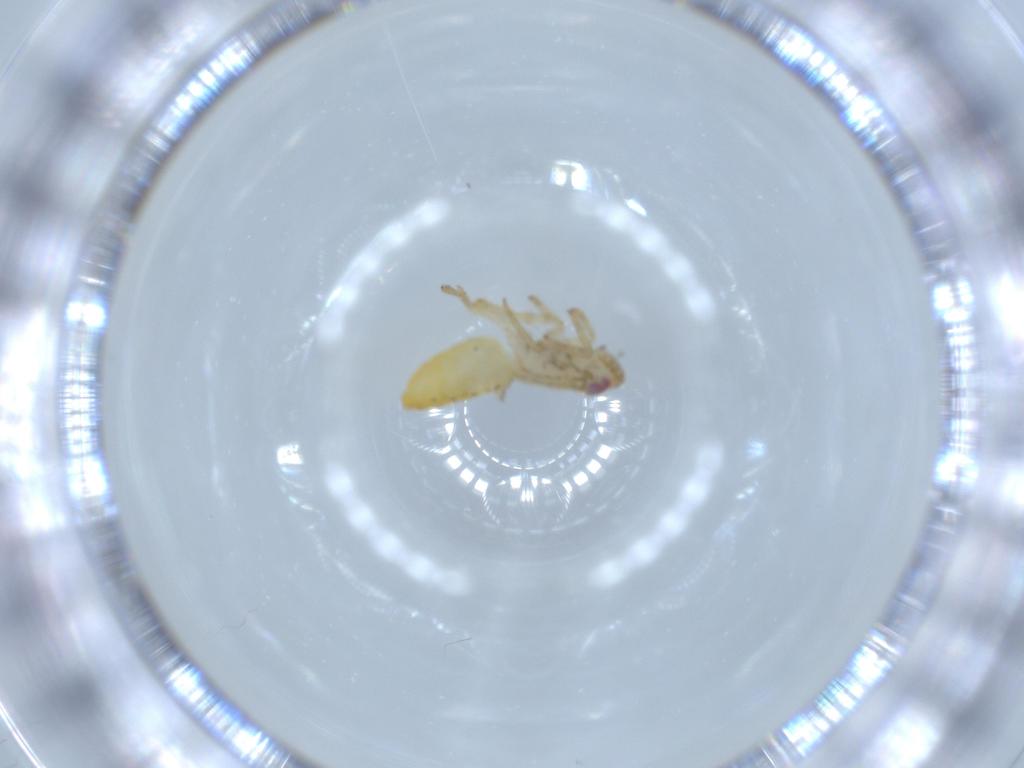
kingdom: Animalia
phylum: Arthropoda
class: Insecta
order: Hemiptera
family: Delphacidae
